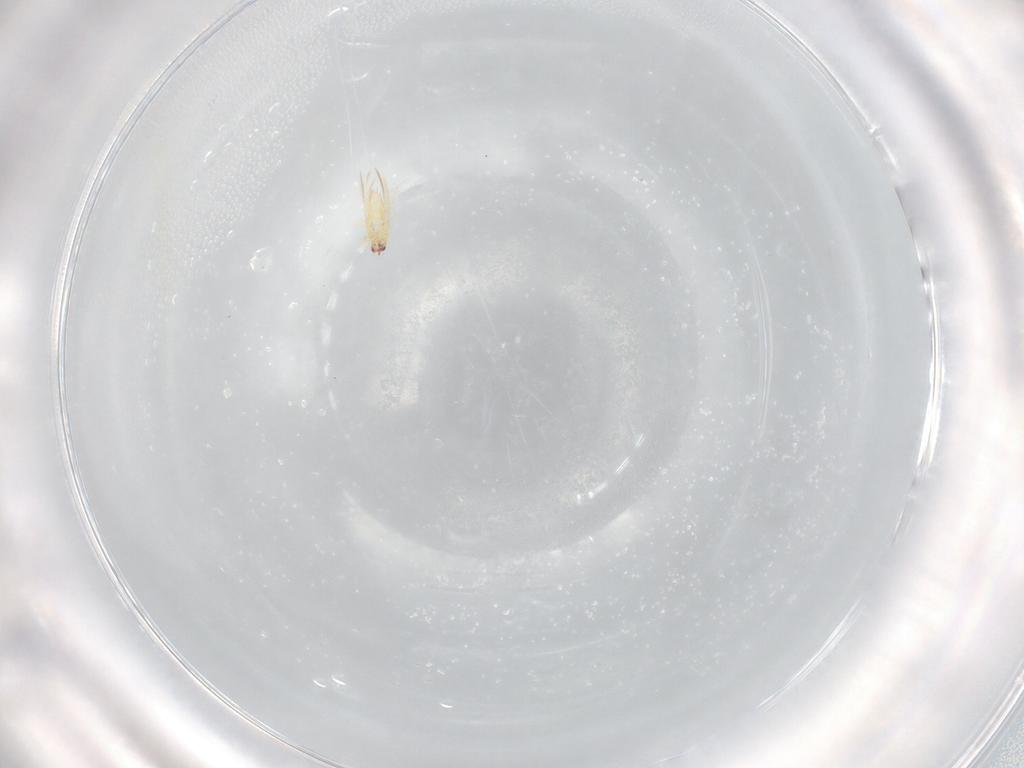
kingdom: Animalia
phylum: Arthropoda
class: Insecta
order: Thysanoptera
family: Thripidae
